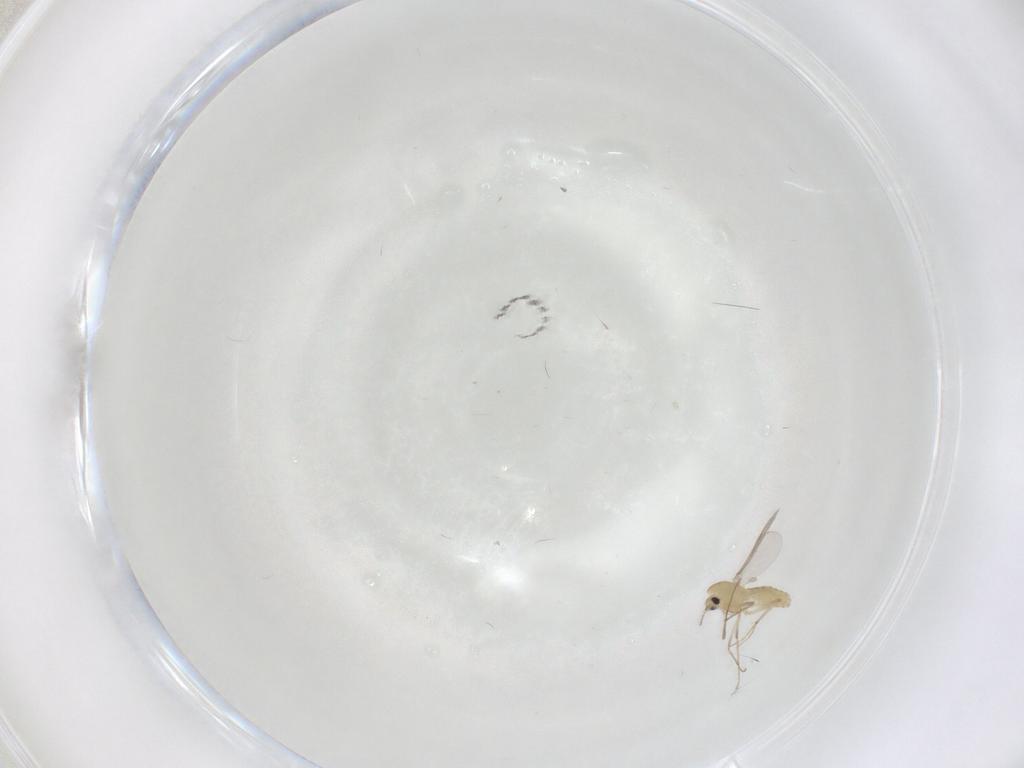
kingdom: Animalia
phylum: Arthropoda
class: Insecta
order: Diptera
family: Chironomidae
